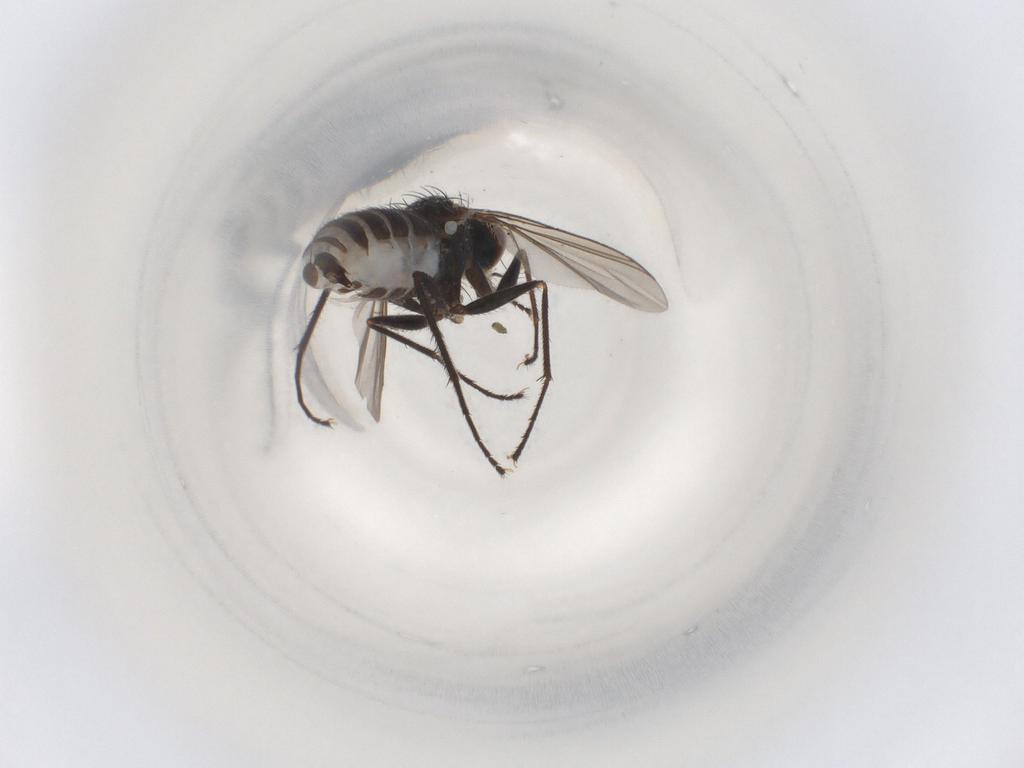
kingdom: Animalia
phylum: Arthropoda
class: Insecta
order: Diptera
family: Dolichopodidae
